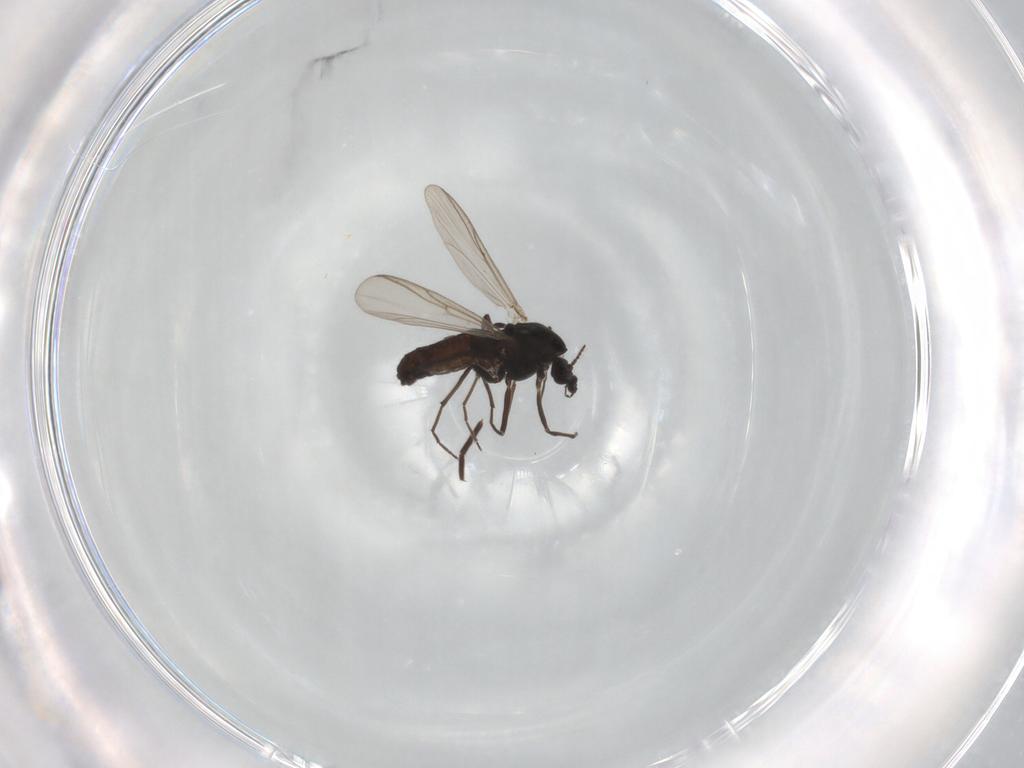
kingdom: Animalia
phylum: Arthropoda
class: Insecta
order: Diptera
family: Chironomidae
